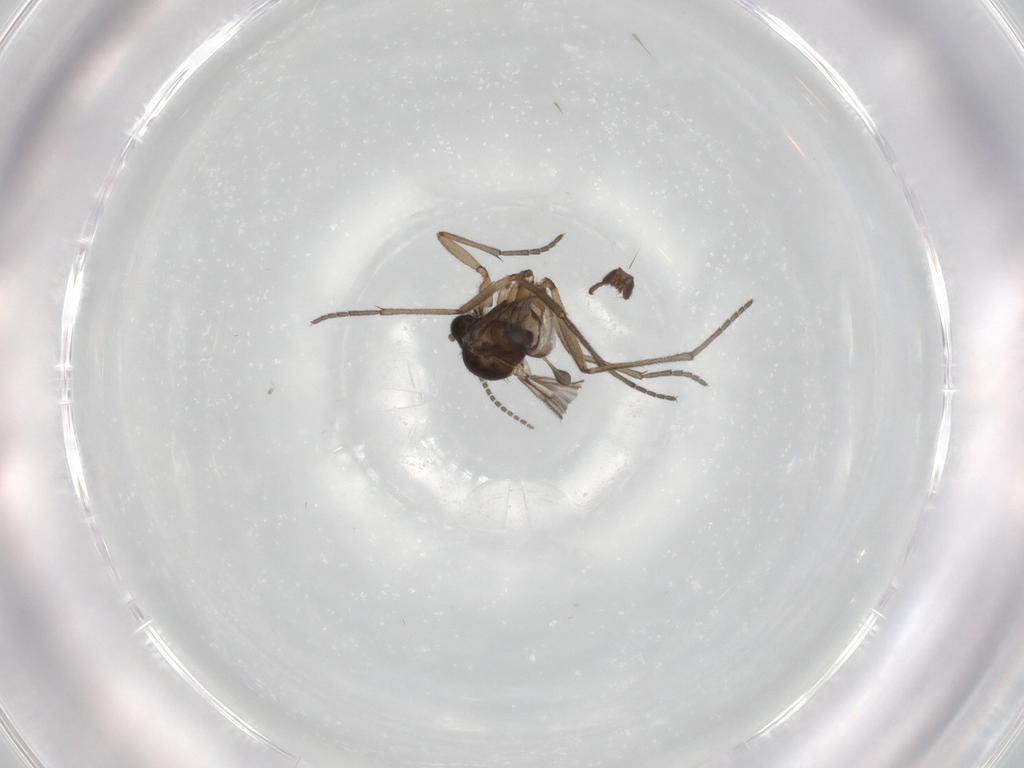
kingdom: Animalia
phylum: Arthropoda
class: Insecta
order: Diptera
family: Sciaridae
